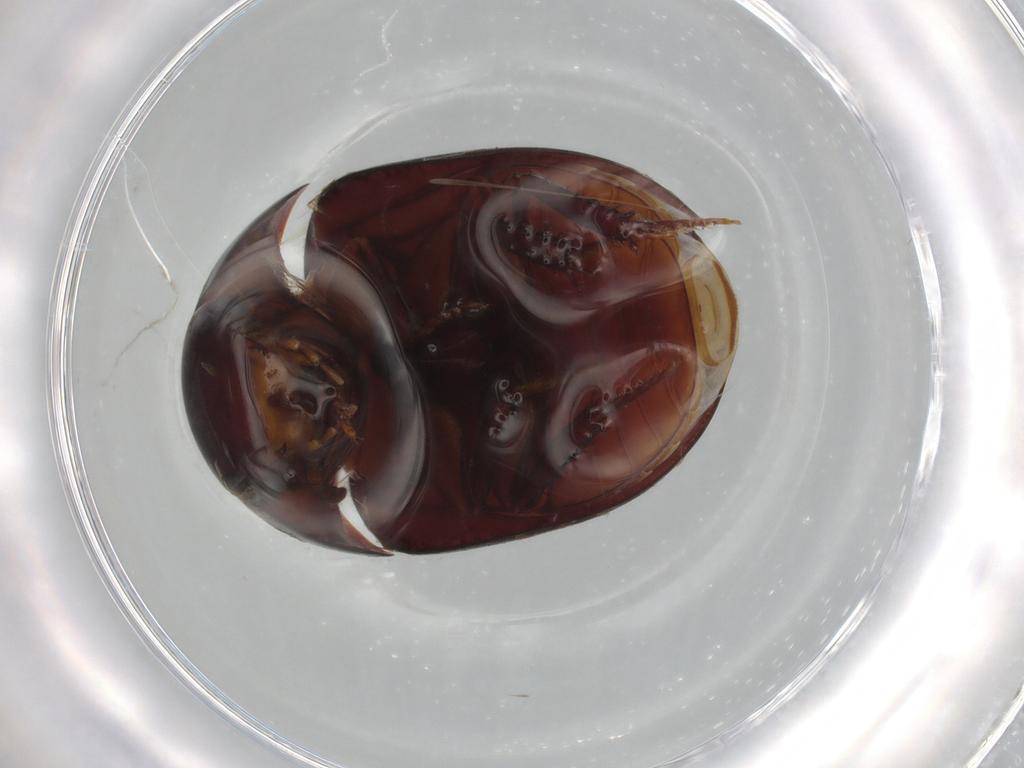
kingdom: Animalia
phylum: Arthropoda
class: Insecta
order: Coleoptera
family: Hydrophilidae
